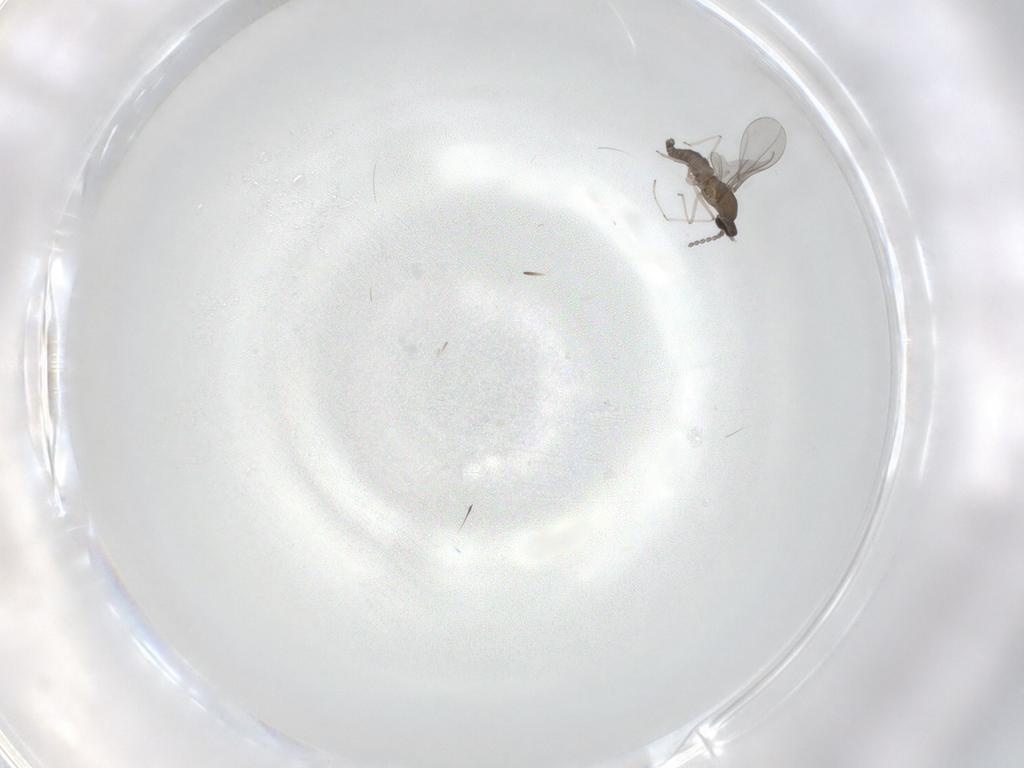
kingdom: Animalia
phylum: Arthropoda
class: Insecta
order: Diptera
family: Cecidomyiidae
